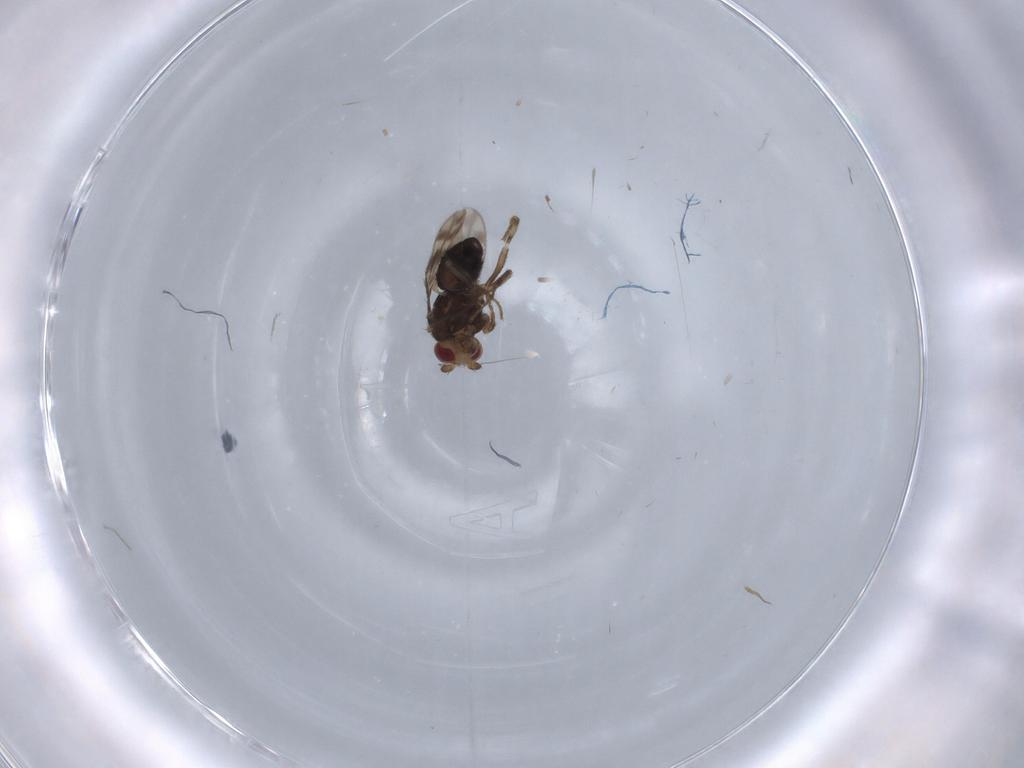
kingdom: Animalia
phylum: Arthropoda
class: Insecta
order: Diptera
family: Sphaeroceridae
